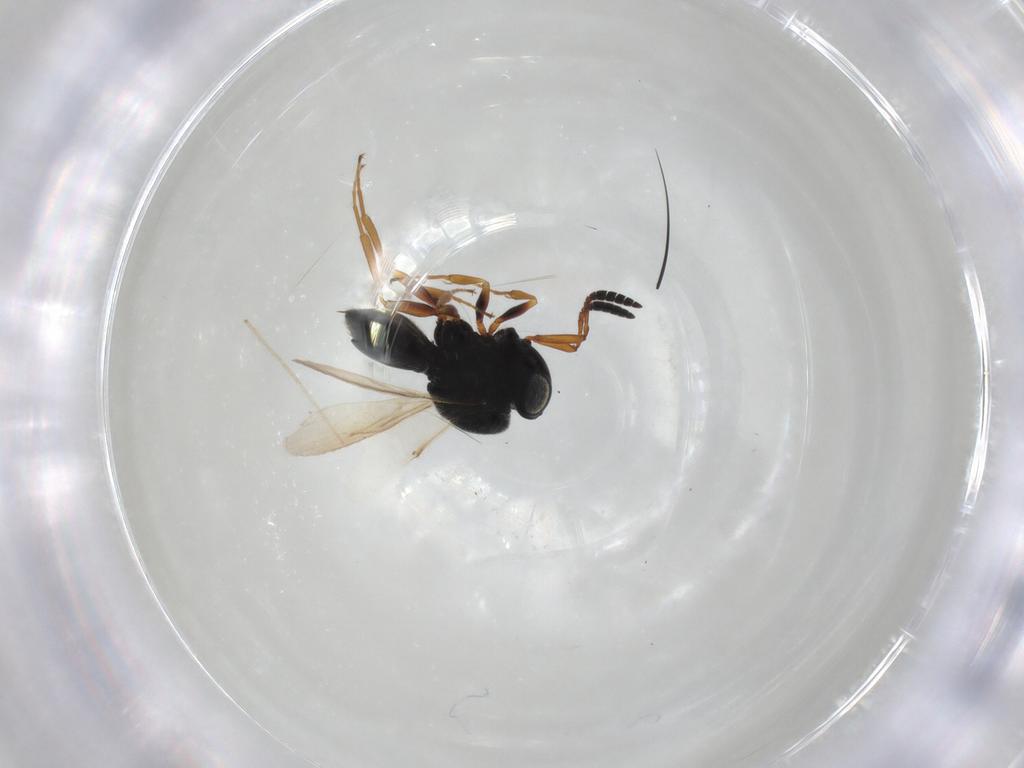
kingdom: Animalia
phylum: Arthropoda
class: Insecta
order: Hymenoptera
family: Scelionidae
